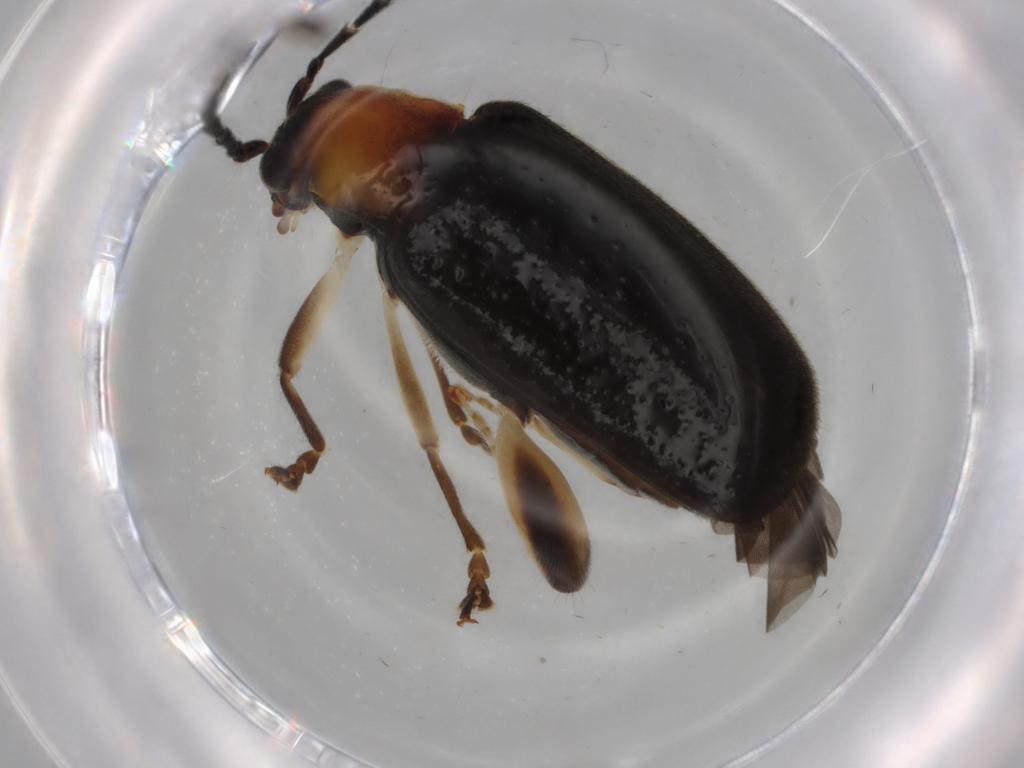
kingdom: Animalia
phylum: Arthropoda
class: Insecta
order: Coleoptera
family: Chrysomelidae
